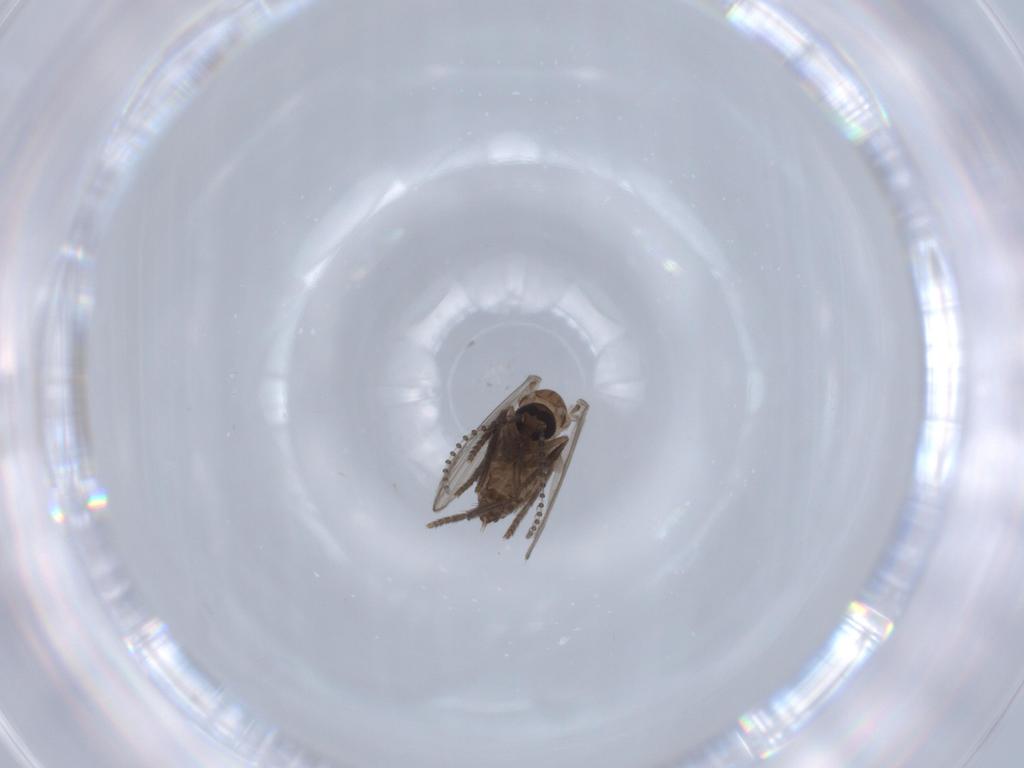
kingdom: Animalia
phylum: Arthropoda
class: Insecta
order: Diptera
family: Psychodidae
